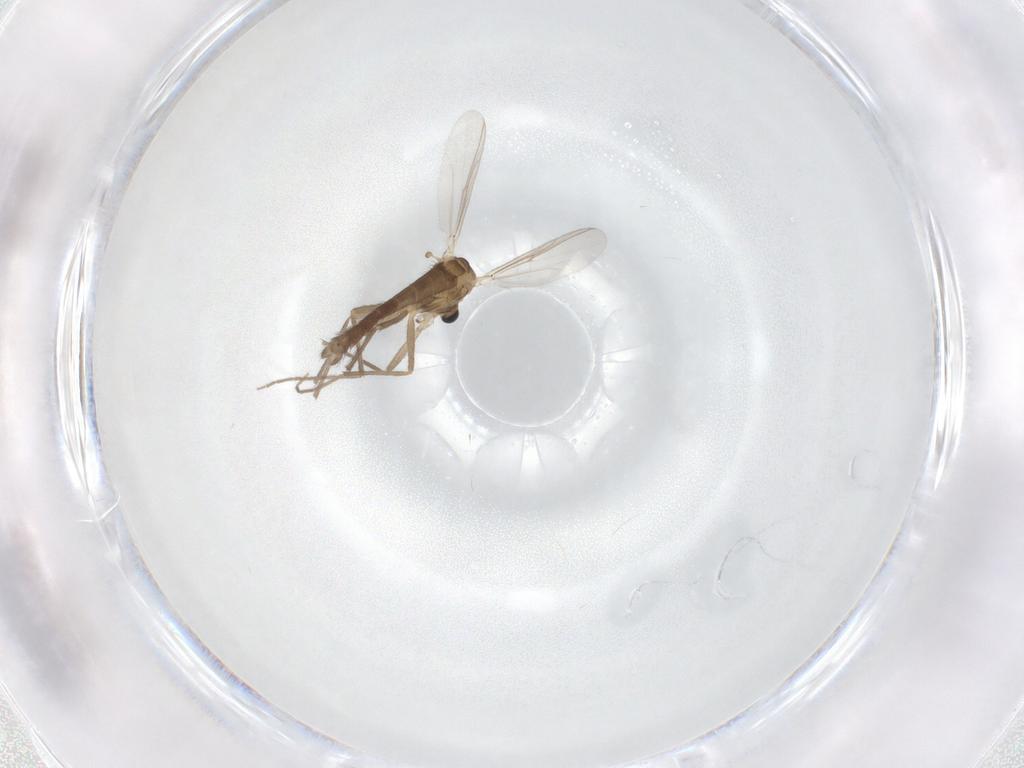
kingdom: Animalia
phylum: Arthropoda
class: Insecta
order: Diptera
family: Chironomidae
